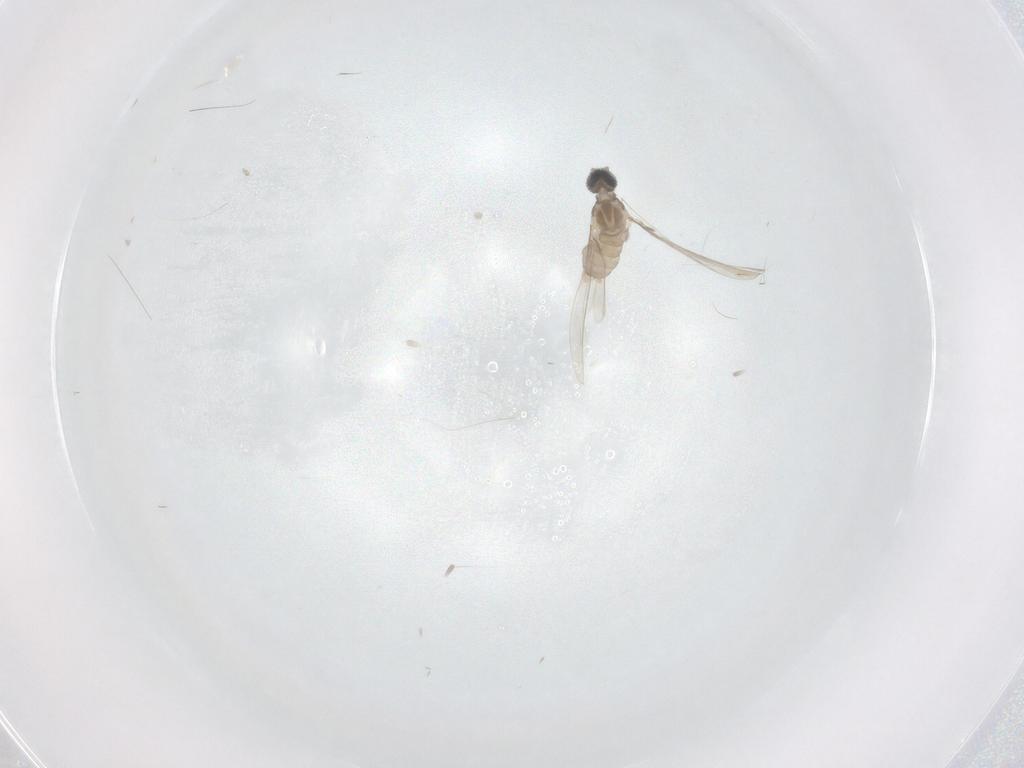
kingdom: Animalia
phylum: Arthropoda
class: Insecta
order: Diptera
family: Cecidomyiidae
